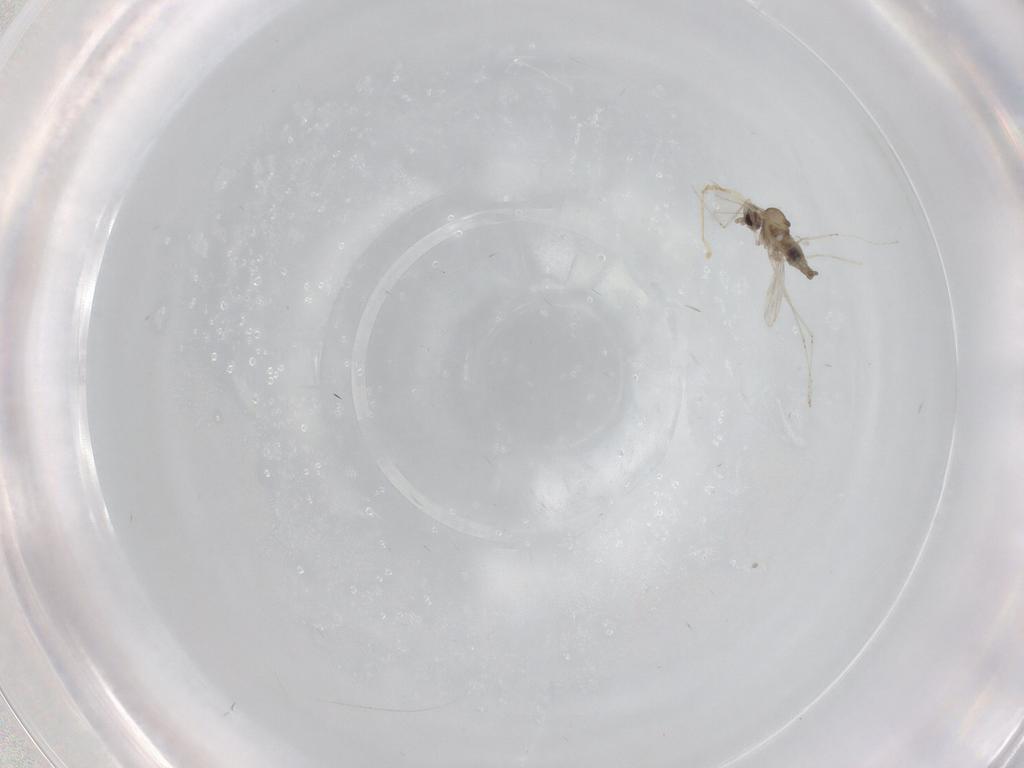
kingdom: Animalia
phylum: Arthropoda
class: Insecta
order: Diptera
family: Cecidomyiidae
